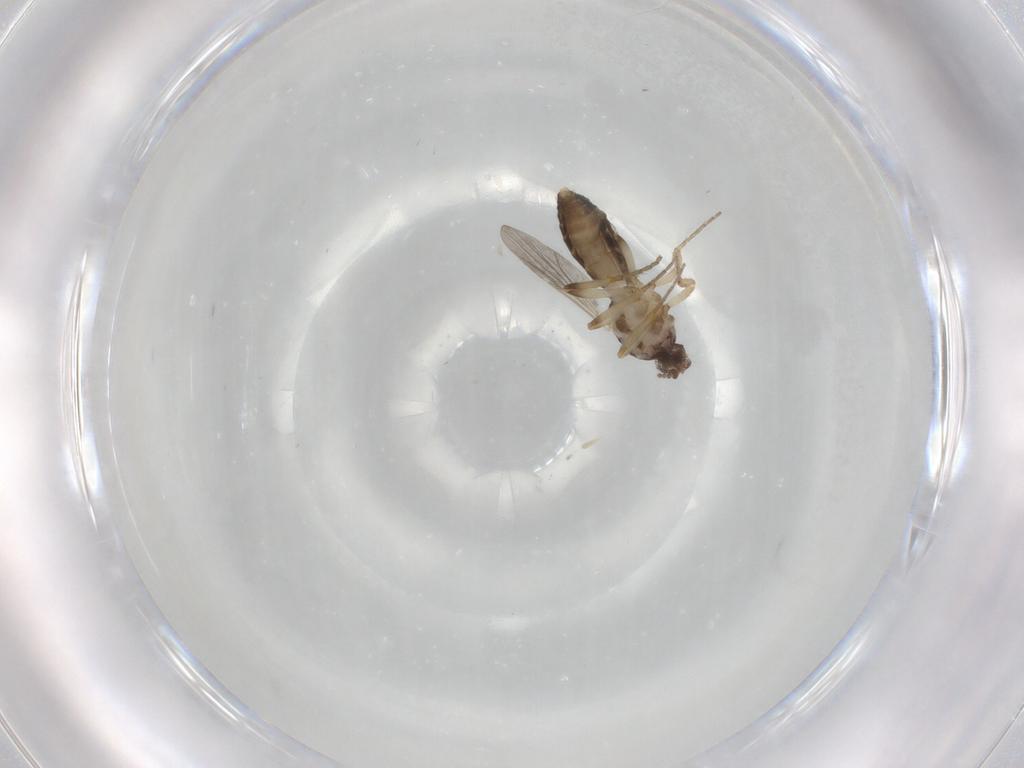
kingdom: Animalia
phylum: Arthropoda
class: Insecta
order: Diptera
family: Ceratopogonidae
